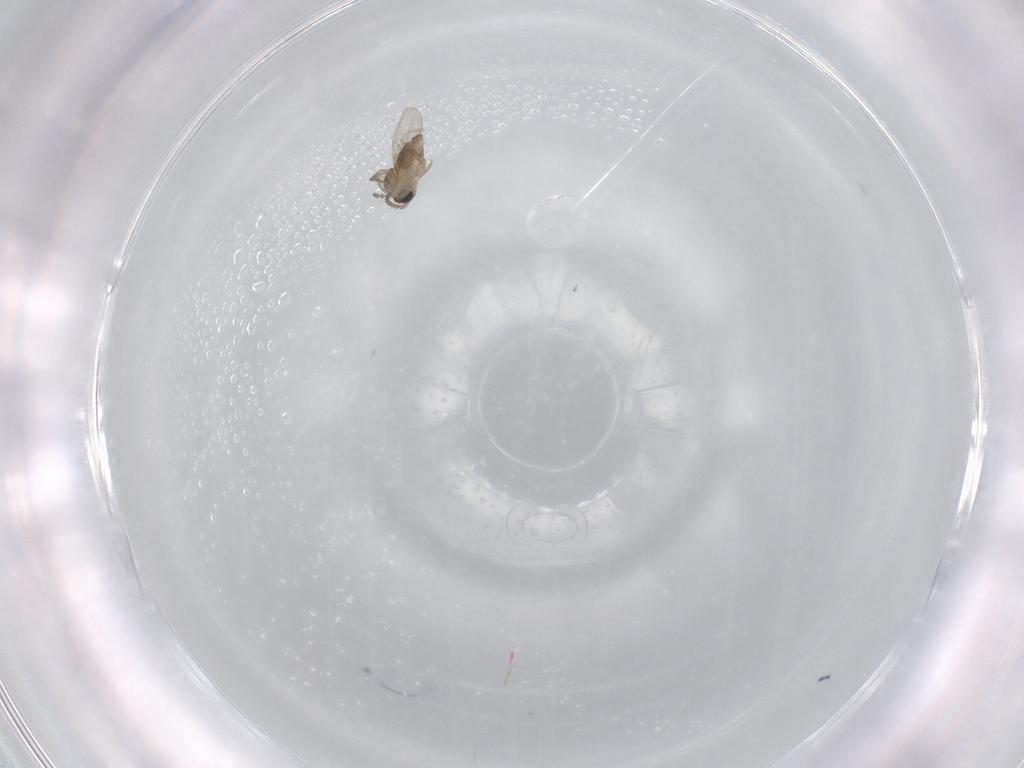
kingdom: Animalia
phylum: Arthropoda
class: Insecta
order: Diptera
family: Cecidomyiidae
